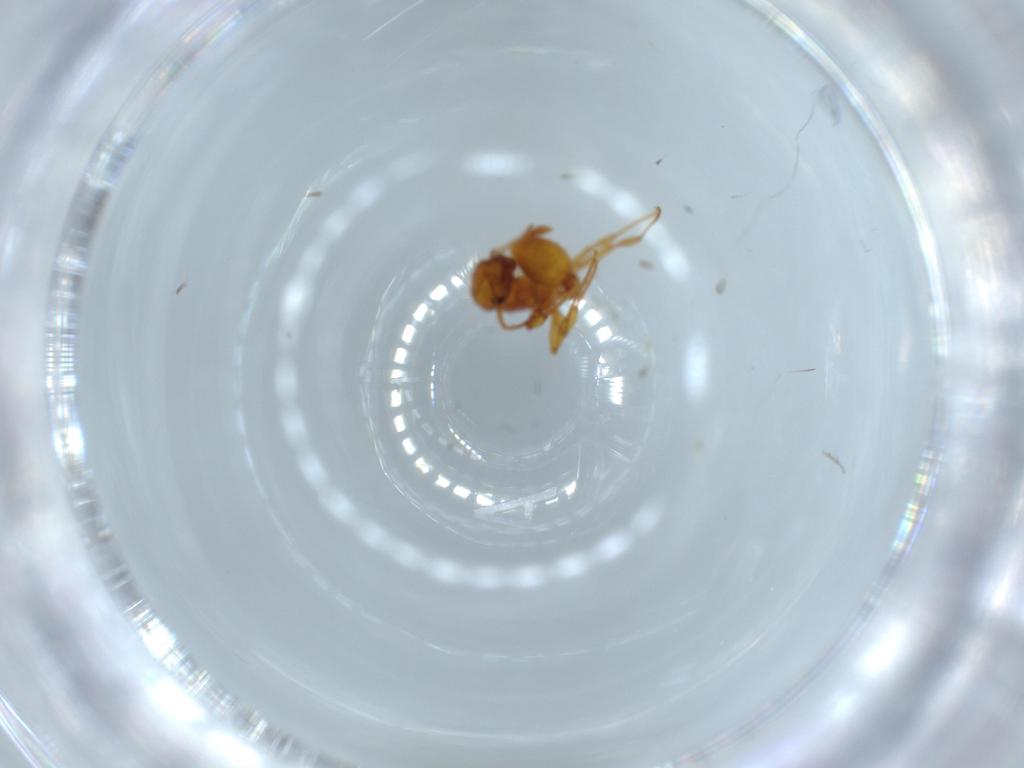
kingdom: Animalia
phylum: Arthropoda
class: Insecta
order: Hymenoptera
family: Formicidae
